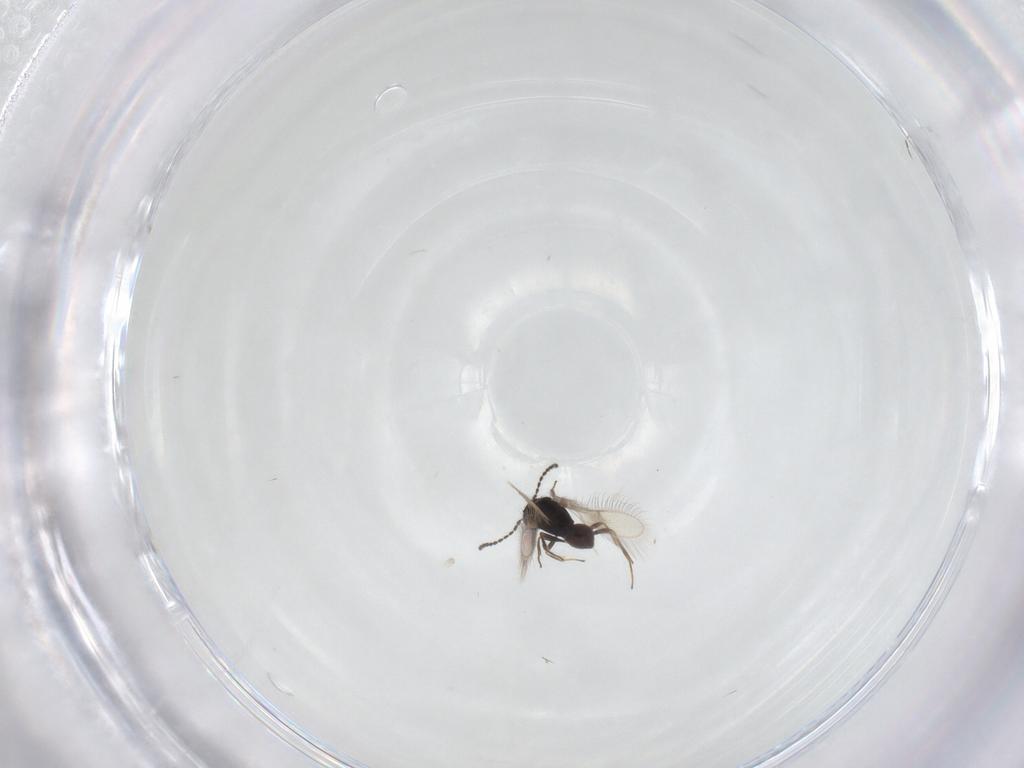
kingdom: Animalia
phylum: Arthropoda
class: Insecta
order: Hymenoptera
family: Scelionidae
